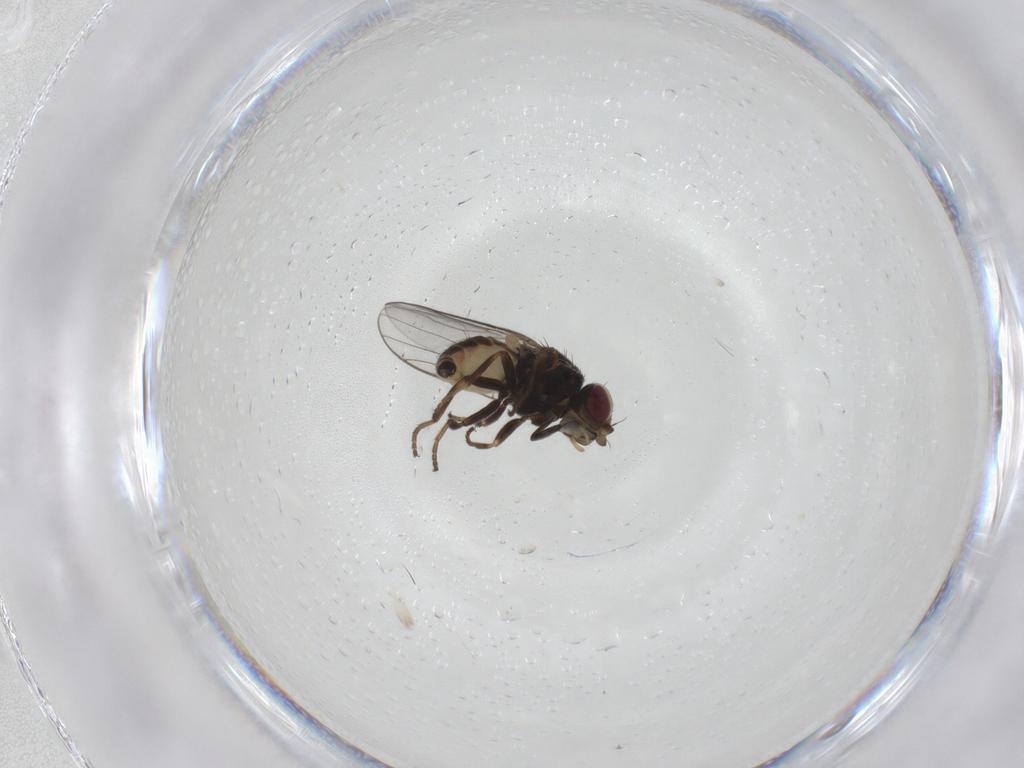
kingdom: Animalia
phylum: Arthropoda
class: Insecta
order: Diptera
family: Chloropidae
